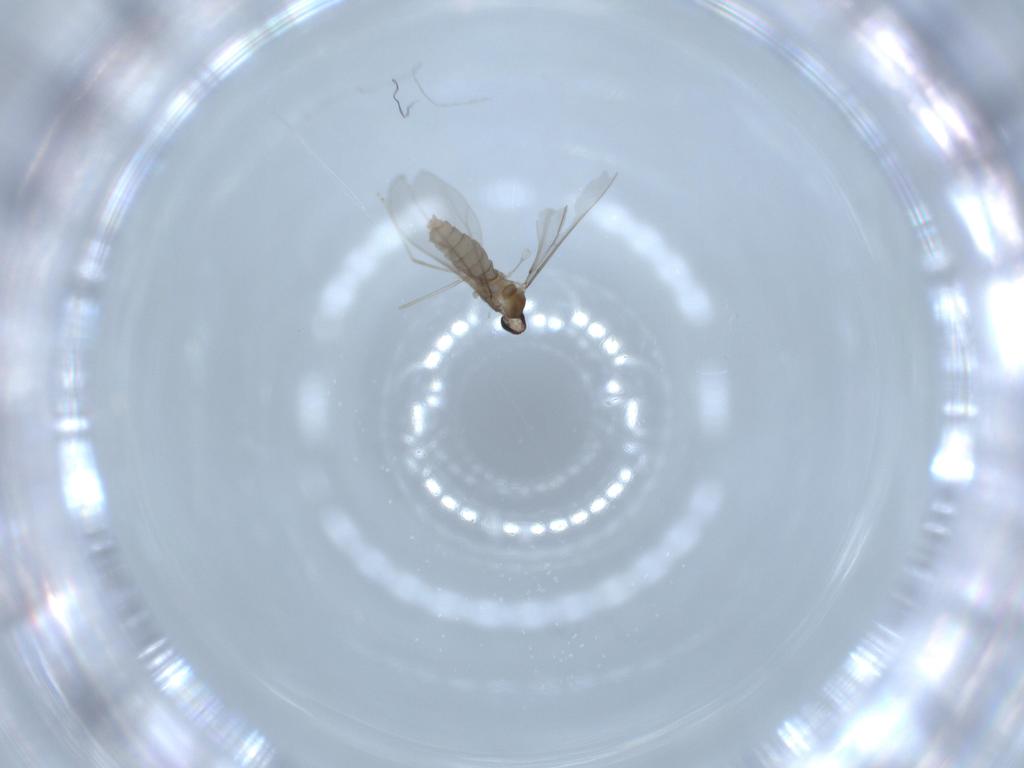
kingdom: Animalia
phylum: Arthropoda
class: Insecta
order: Diptera
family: Cecidomyiidae
